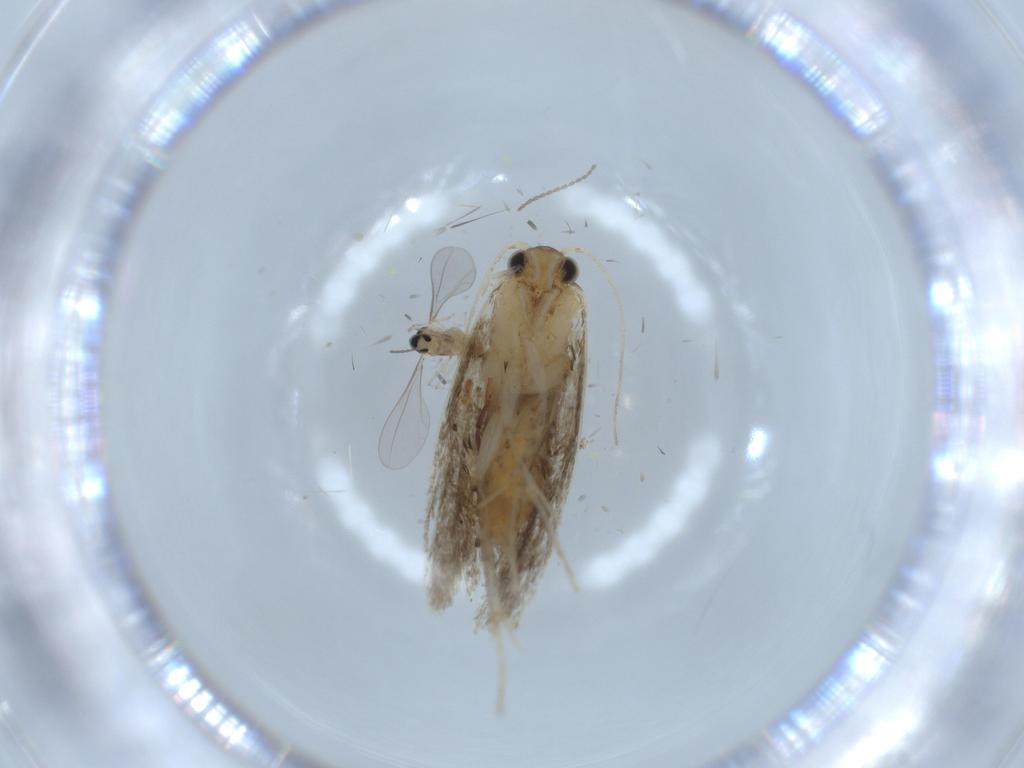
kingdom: Animalia
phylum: Arthropoda
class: Insecta
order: Diptera
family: Cecidomyiidae
